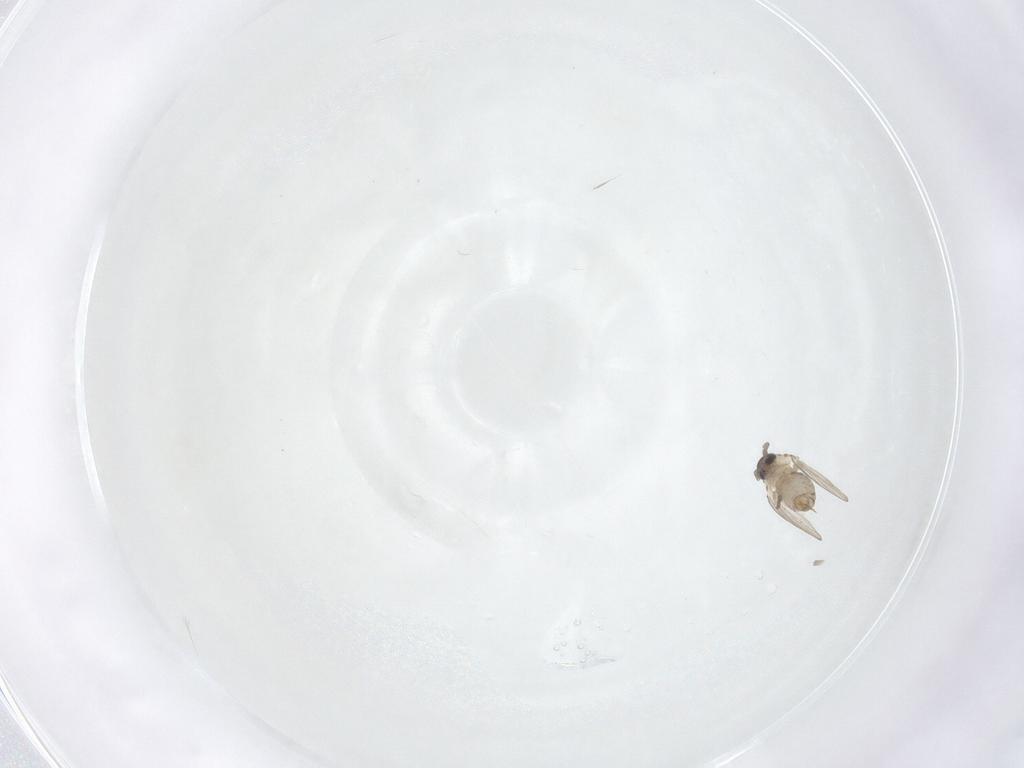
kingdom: Animalia
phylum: Arthropoda
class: Insecta
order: Diptera
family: Psychodidae
